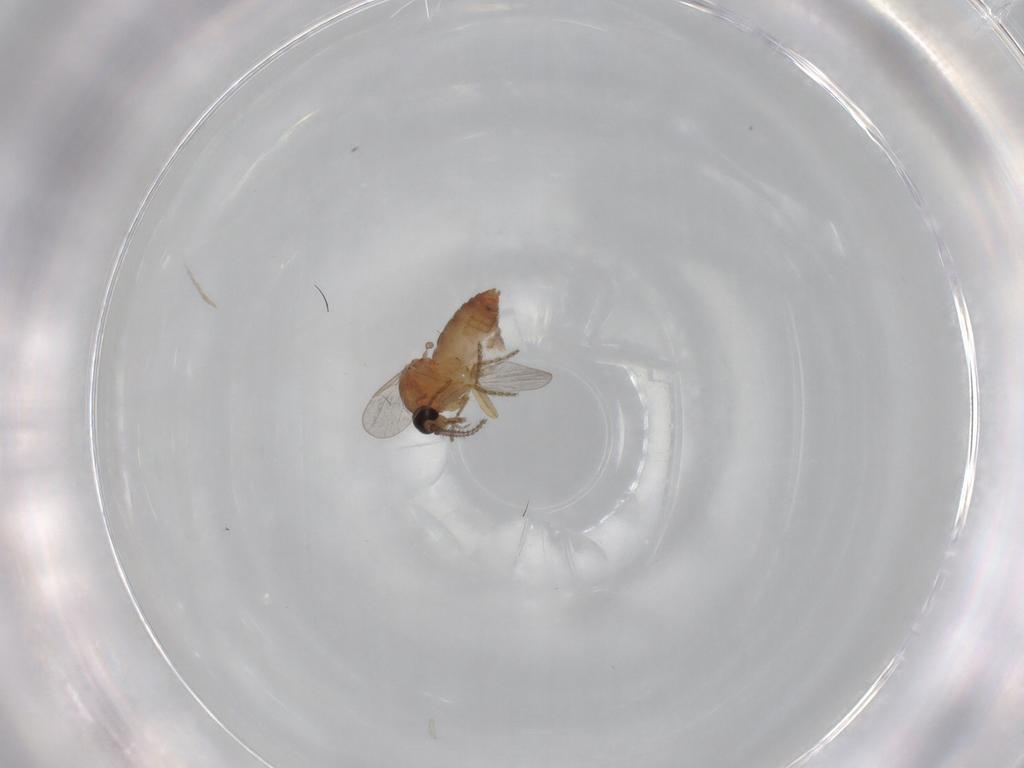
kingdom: Animalia
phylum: Arthropoda
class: Insecta
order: Diptera
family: Ceratopogonidae
